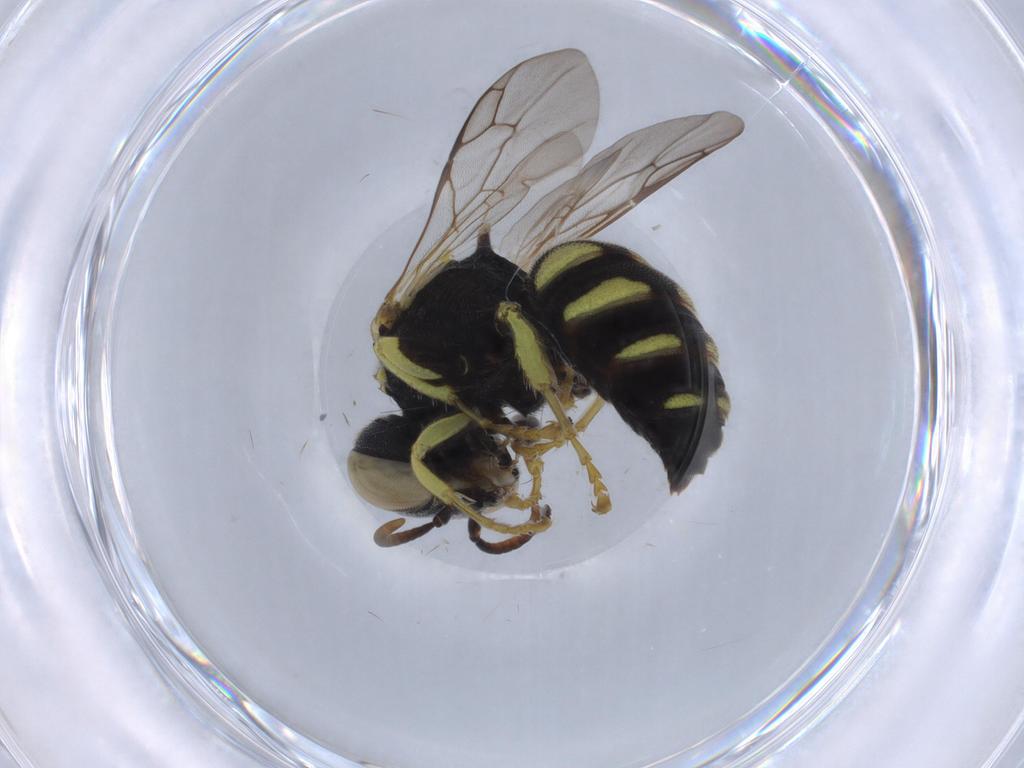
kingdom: Animalia
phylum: Arthropoda
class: Insecta
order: Hymenoptera
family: Crabronidae
